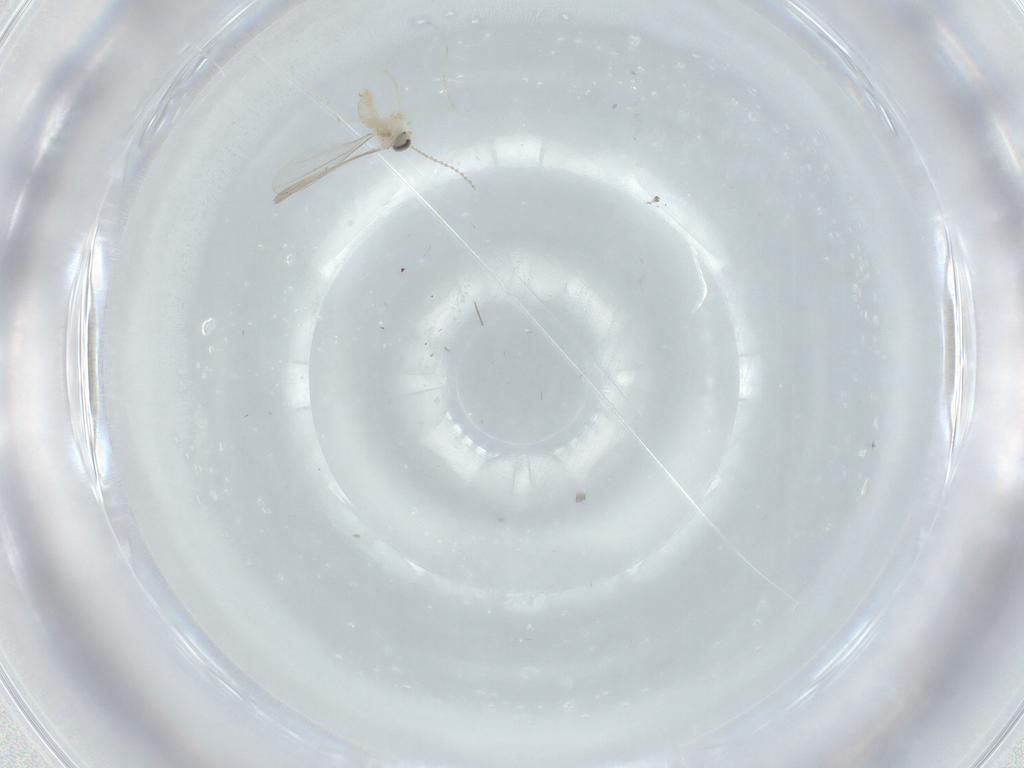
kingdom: Animalia
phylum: Arthropoda
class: Insecta
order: Diptera
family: Cecidomyiidae
